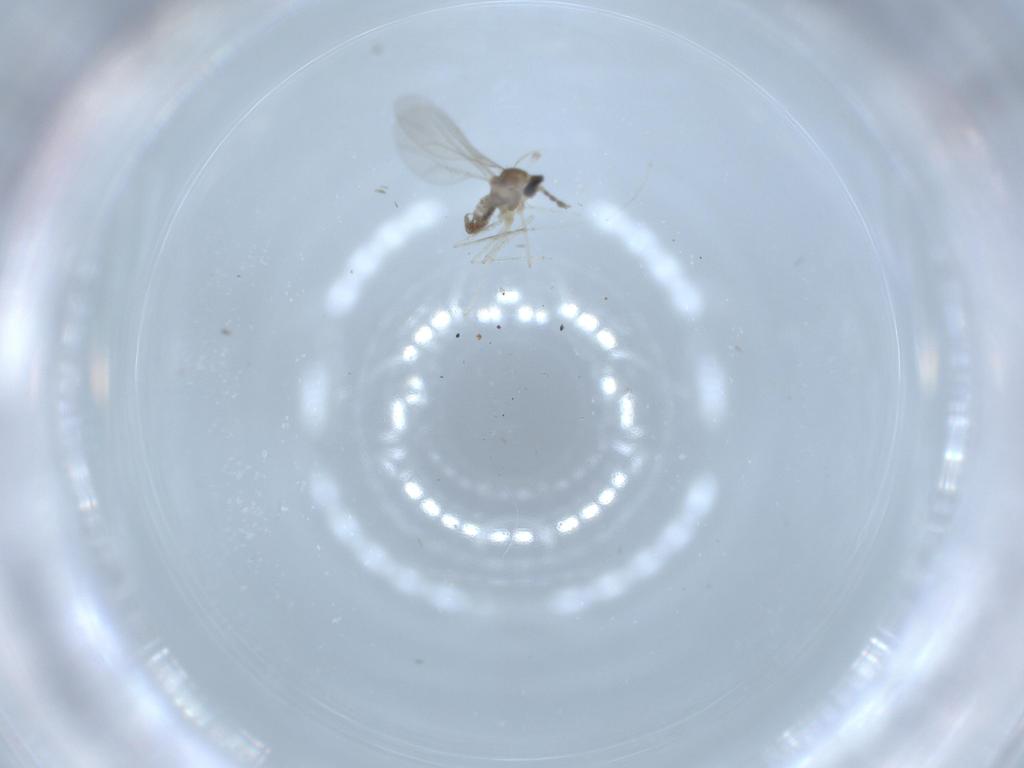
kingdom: Animalia
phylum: Arthropoda
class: Insecta
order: Diptera
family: Cecidomyiidae
